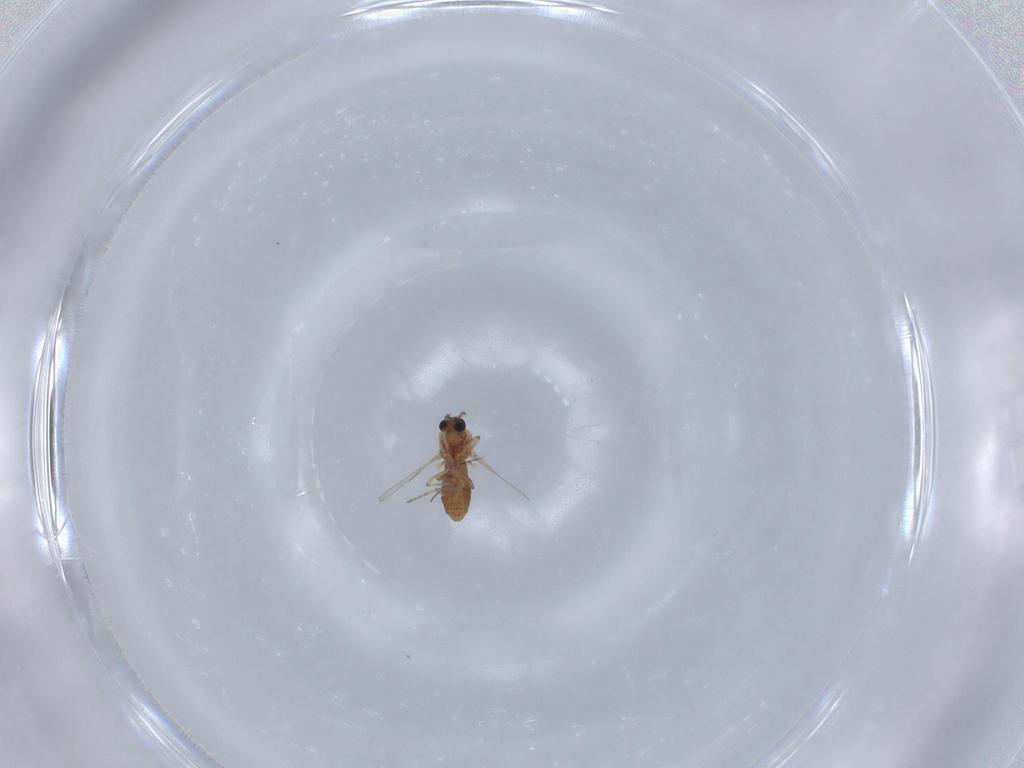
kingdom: Animalia
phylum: Arthropoda
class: Insecta
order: Diptera
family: Ceratopogonidae
